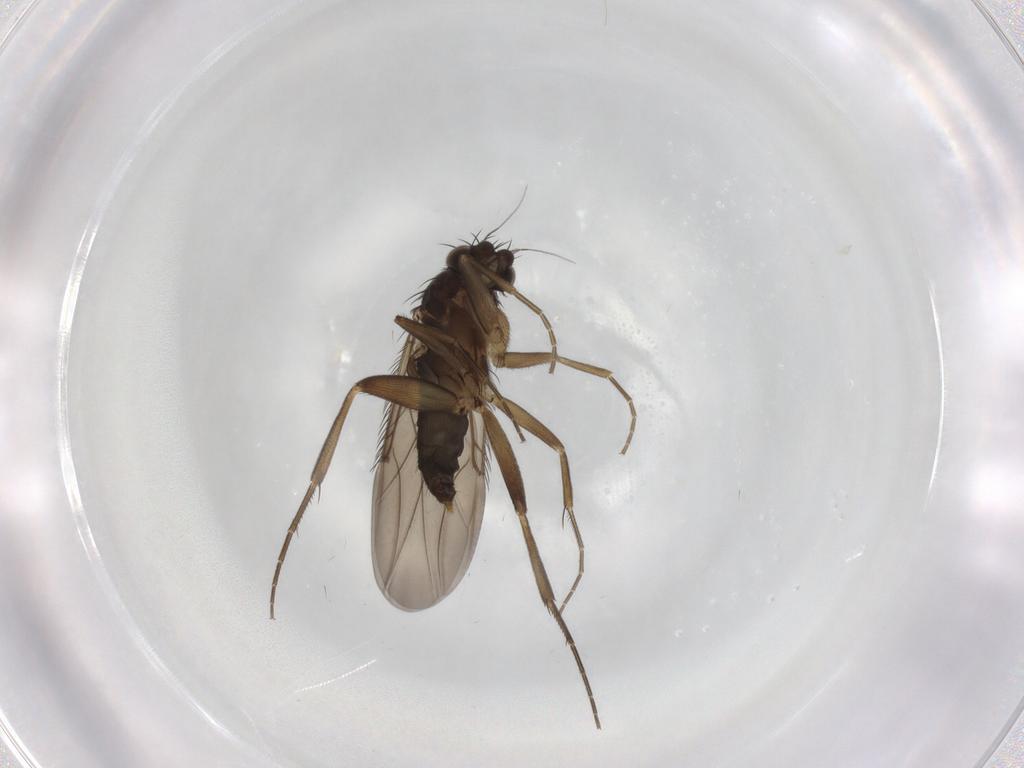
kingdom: Animalia
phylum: Arthropoda
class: Insecta
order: Diptera
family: Phoridae
